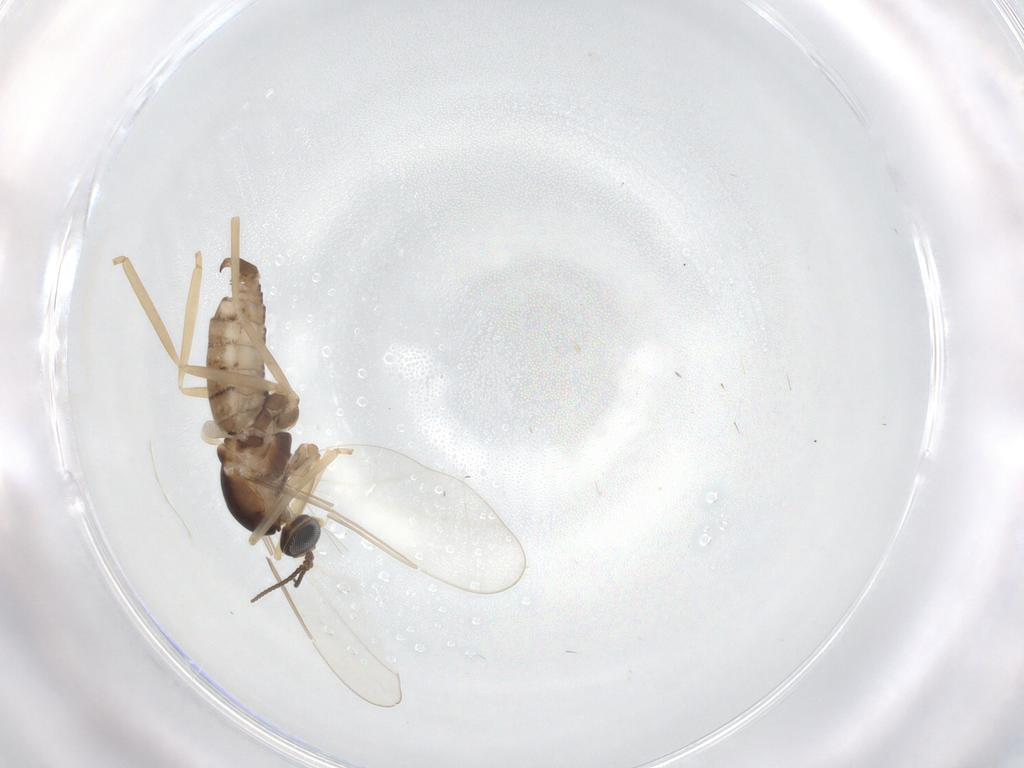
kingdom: Animalia
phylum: Arthropoda
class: Insecta
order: Diptera
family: Cecidomyiidae
